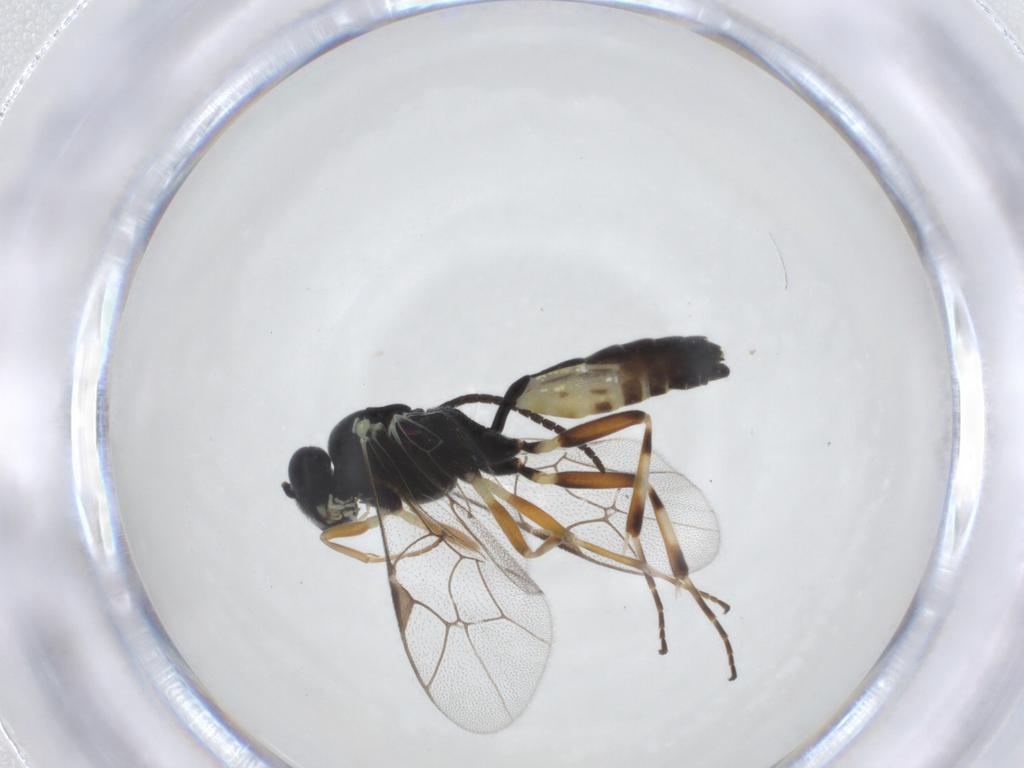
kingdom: Animalia
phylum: Arthropoda
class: Insecta
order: Hymenoptera
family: Ichneumonidae
